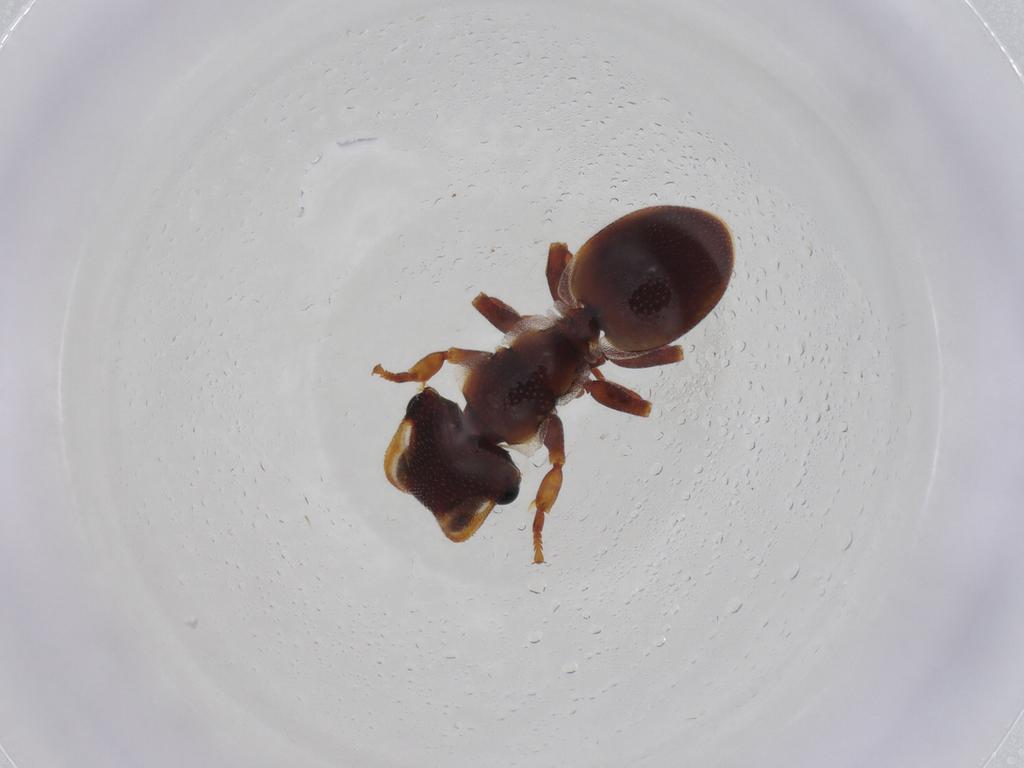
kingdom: Animalia
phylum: Arthropoda
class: Insecta
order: Hymenoptera
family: Formicidae
